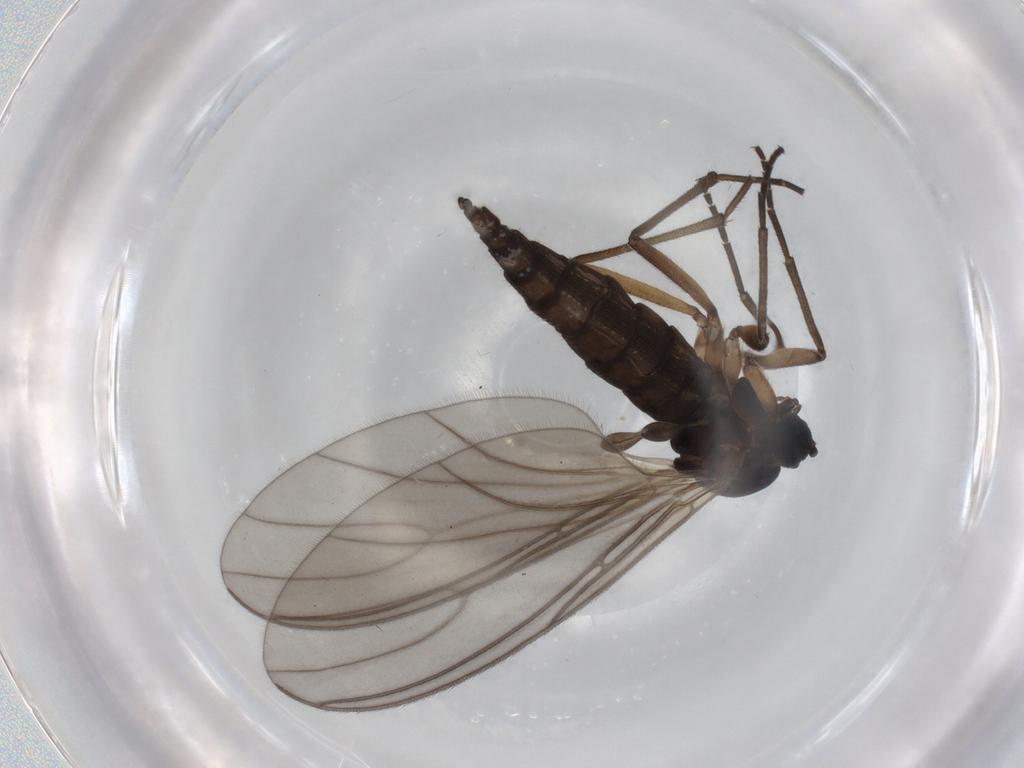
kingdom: Animalia
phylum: Arthropoda
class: Insecta
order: Diptera
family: Sciaridae
